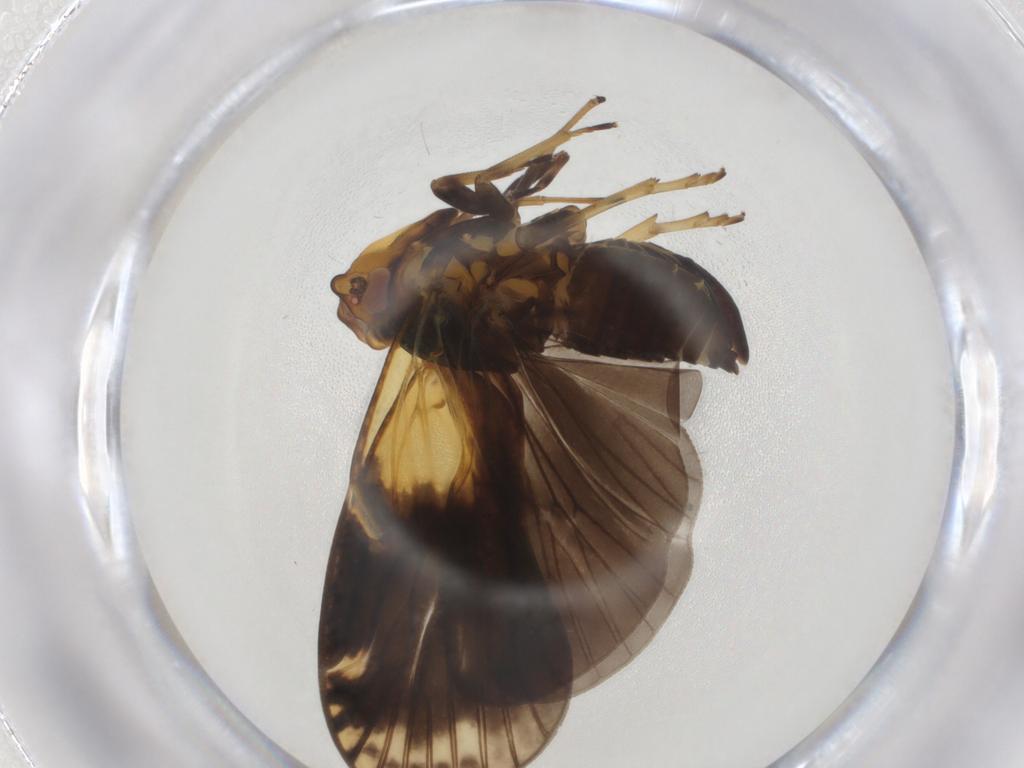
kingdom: Animalia
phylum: Arthropoda
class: Insecta
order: Hemiptera
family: Cixiidae
